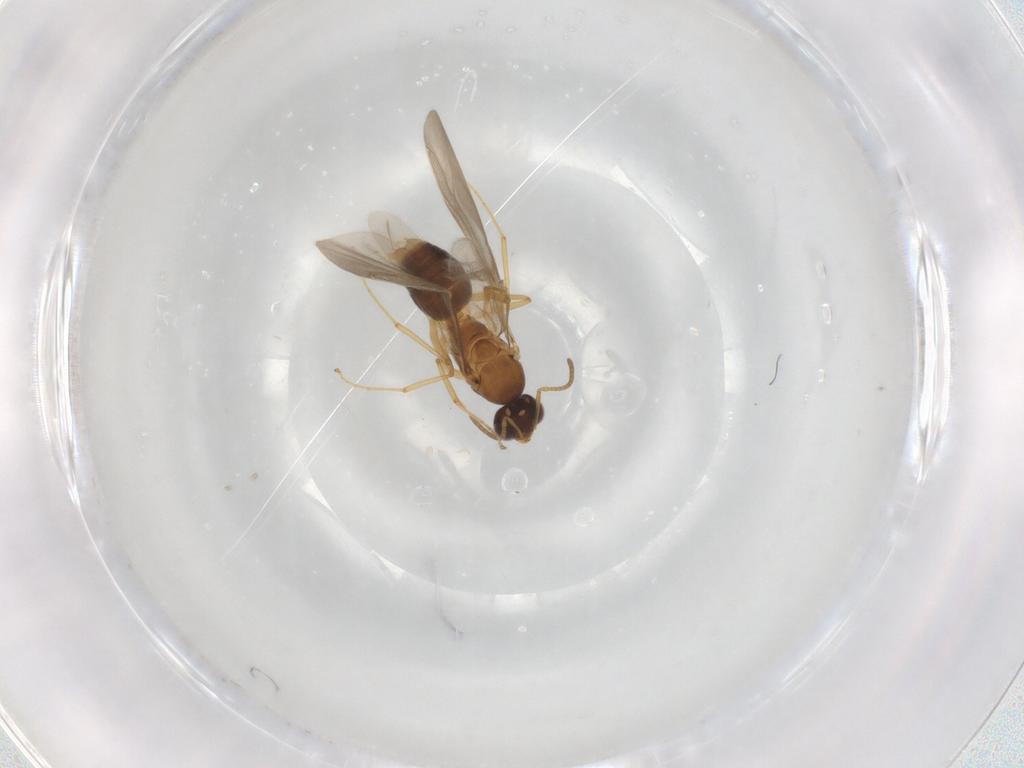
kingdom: Animalia
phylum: Arthropoda
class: Insecta
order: Hymenoptera
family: Formicidae
